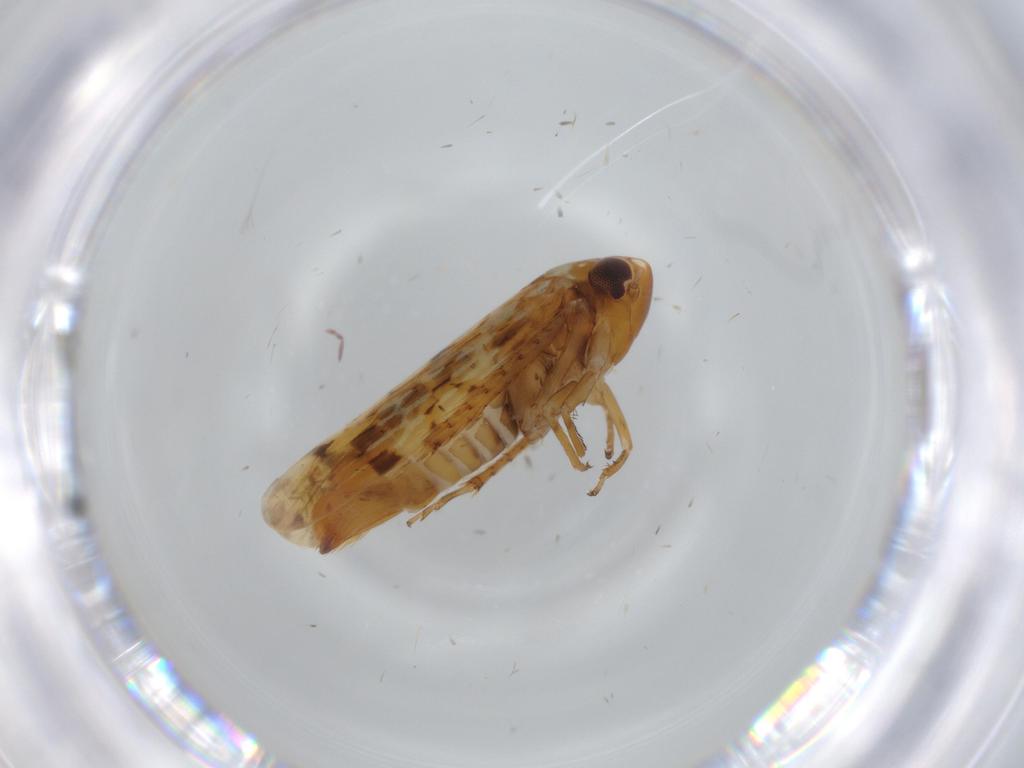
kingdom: Animalia
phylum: Arthropoda
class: Insecta
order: Hemiptera
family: Cicadellidae
